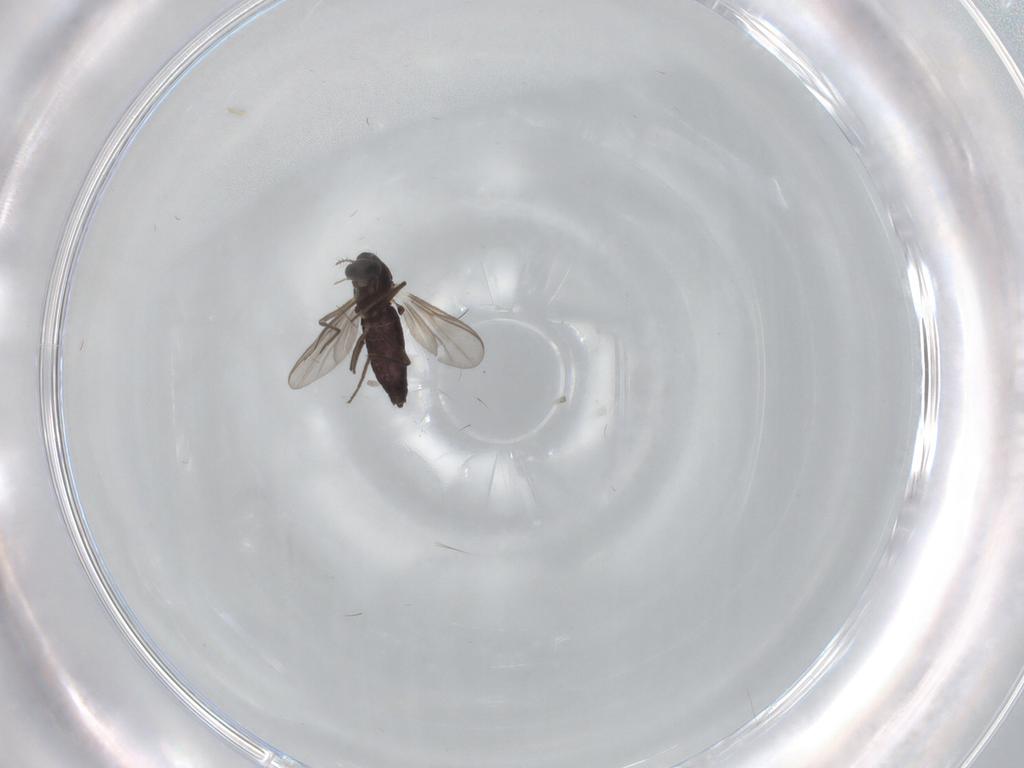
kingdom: Animalia
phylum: Arthropoda
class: Insecta
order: Diptera
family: Chironomidae
